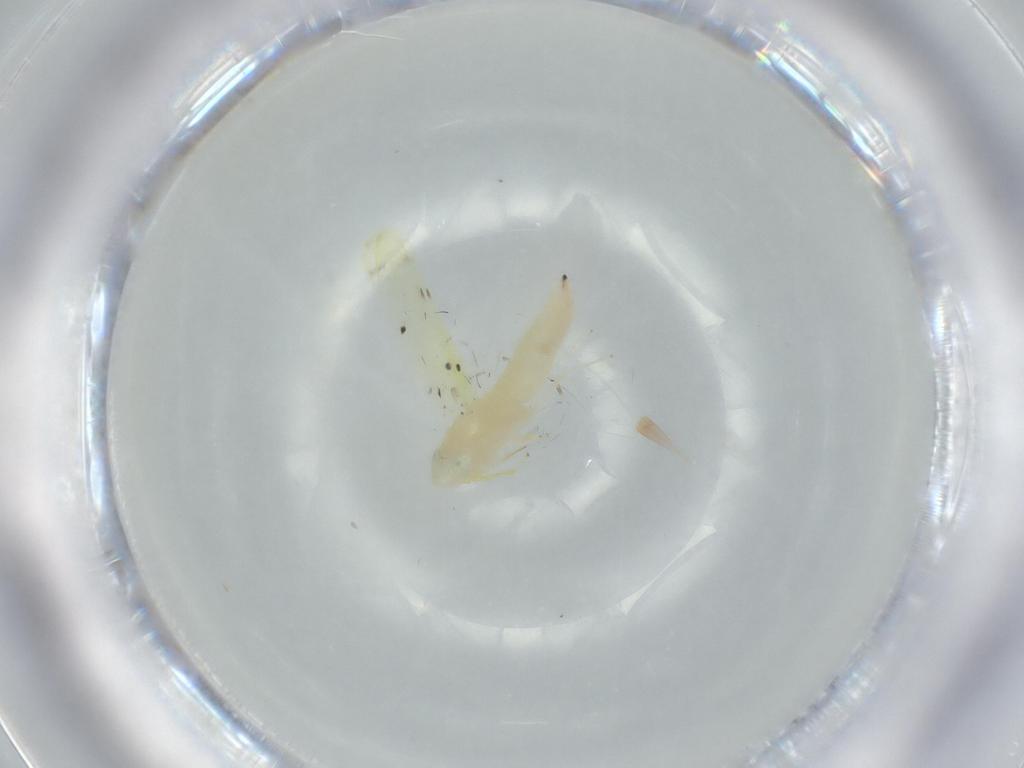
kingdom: Animalia
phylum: Arthropoda
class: Insecta
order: Hemiptera
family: Cicadellidae
